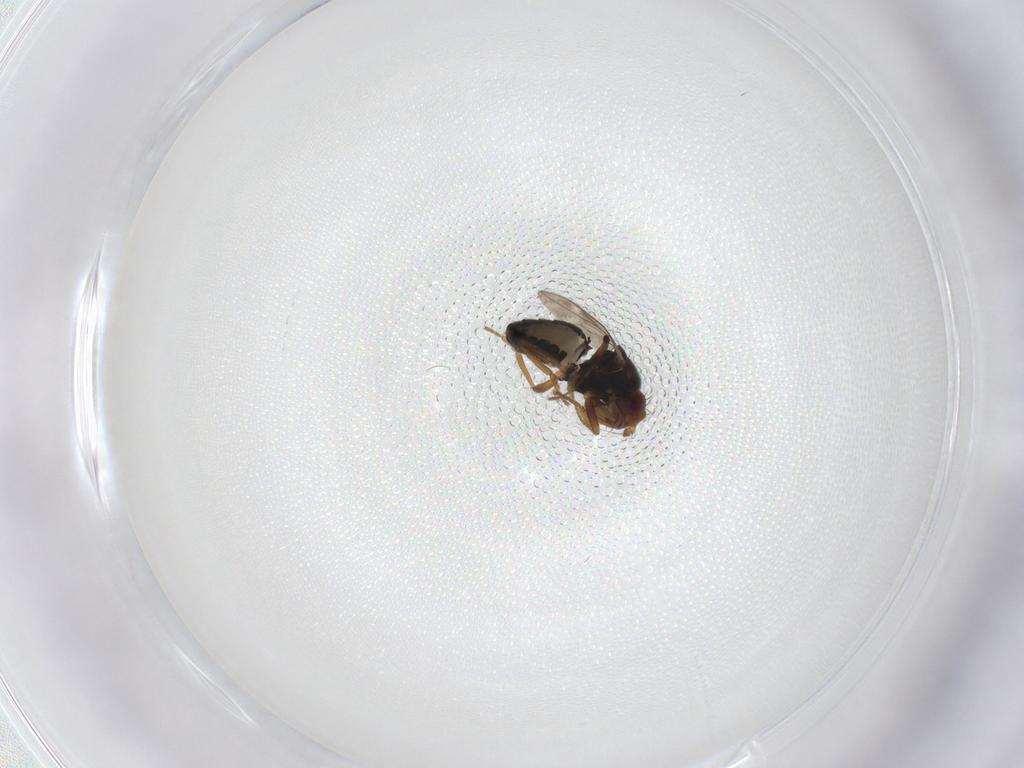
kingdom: Animalia
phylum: Arthropoda
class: Insecta
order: Diptera
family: Sphaeroceridae
